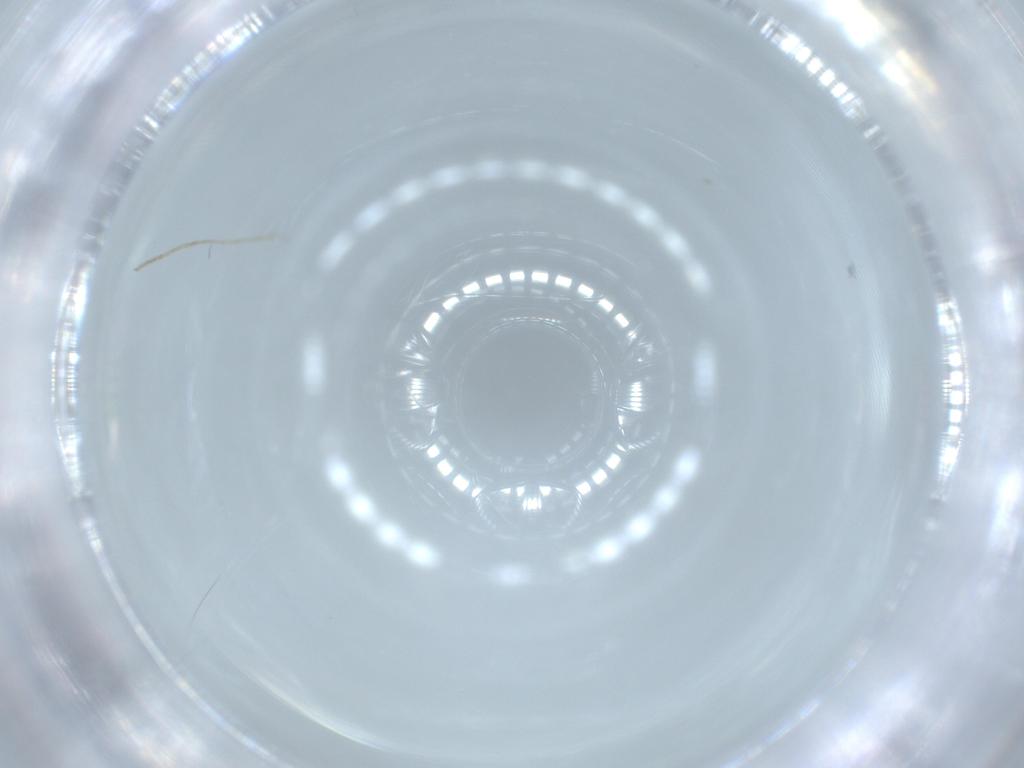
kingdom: Animalia
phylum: Arthropoda
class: Insecta
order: Diptera
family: Chironomidae
